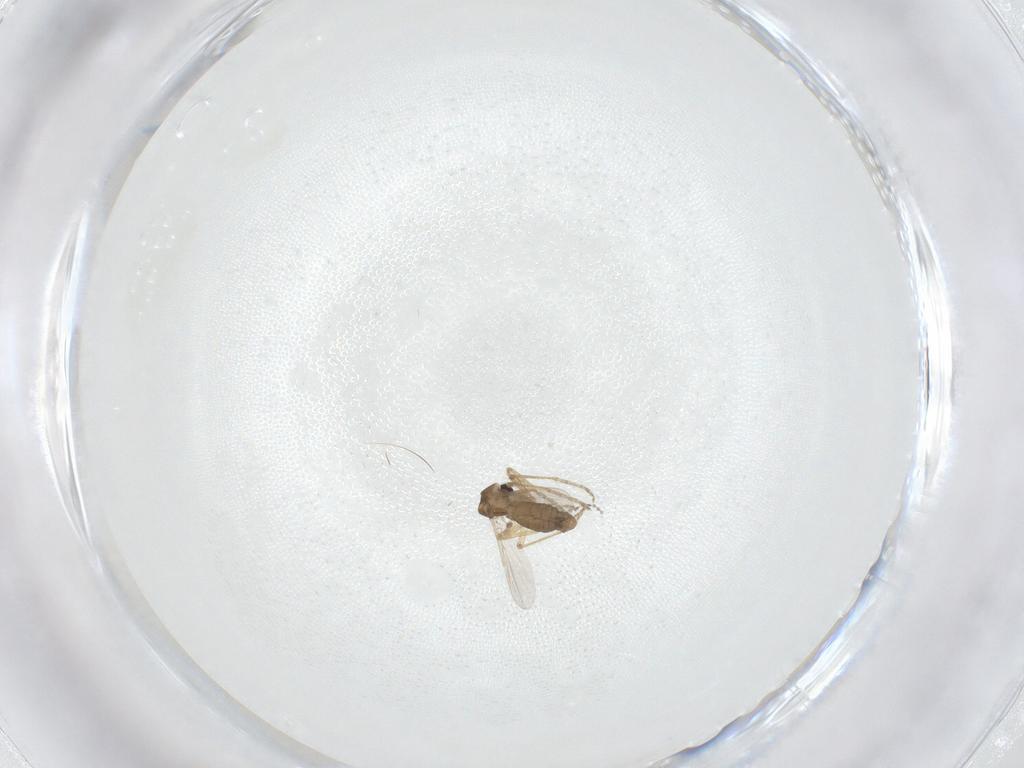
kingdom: Animalia
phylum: Arthropoda
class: Insecta
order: Diptera
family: Ceratopogonidae
